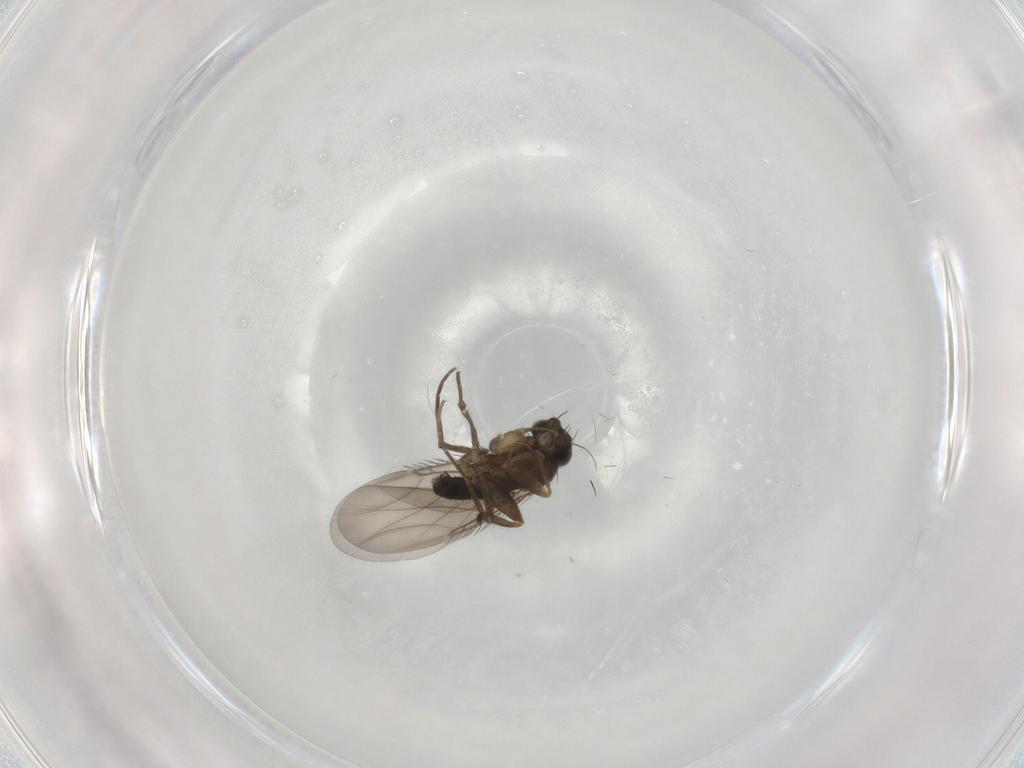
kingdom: Animalia
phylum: Arthropoda
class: Insecta
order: Diptera
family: Phoridae
